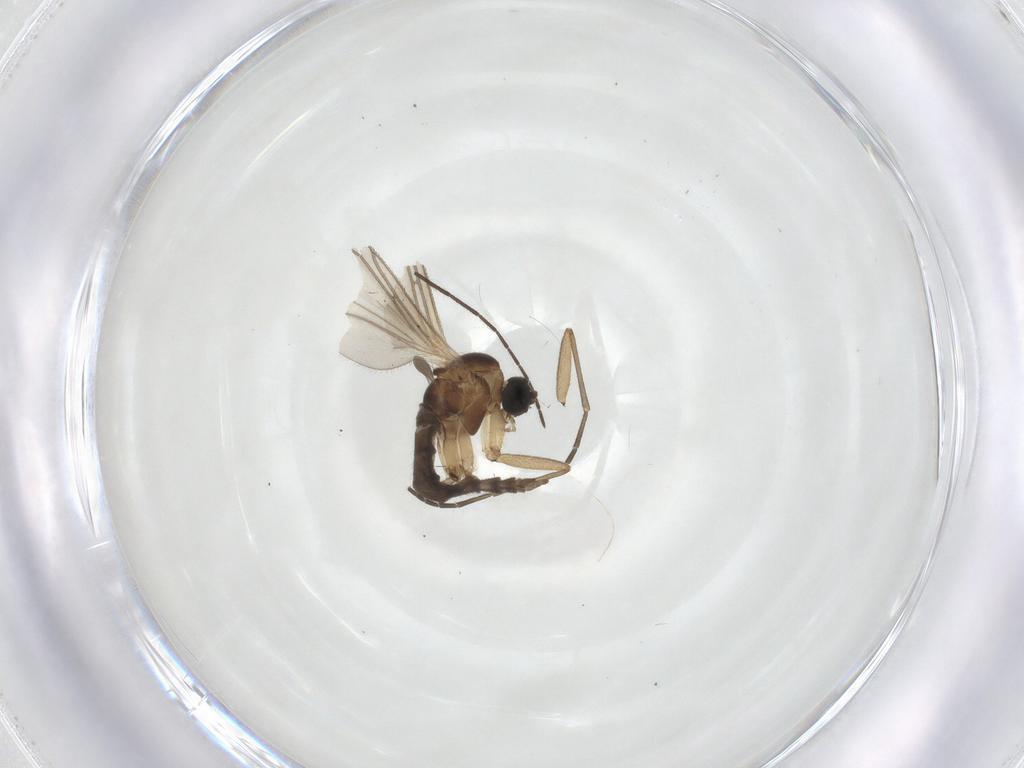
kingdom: Animalia
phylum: Arthropoda
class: Insecta
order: Diptera
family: Sciaridae
